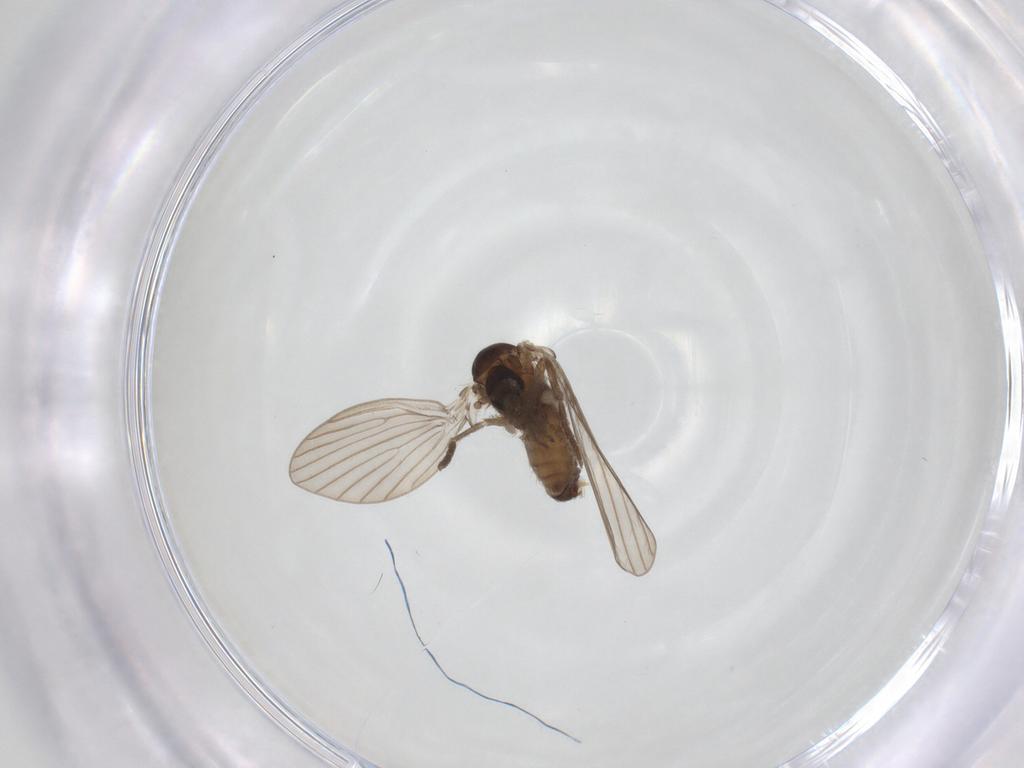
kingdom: Animalia
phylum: Arthropoda
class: Insecta
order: Diptera
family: Psychodidae
